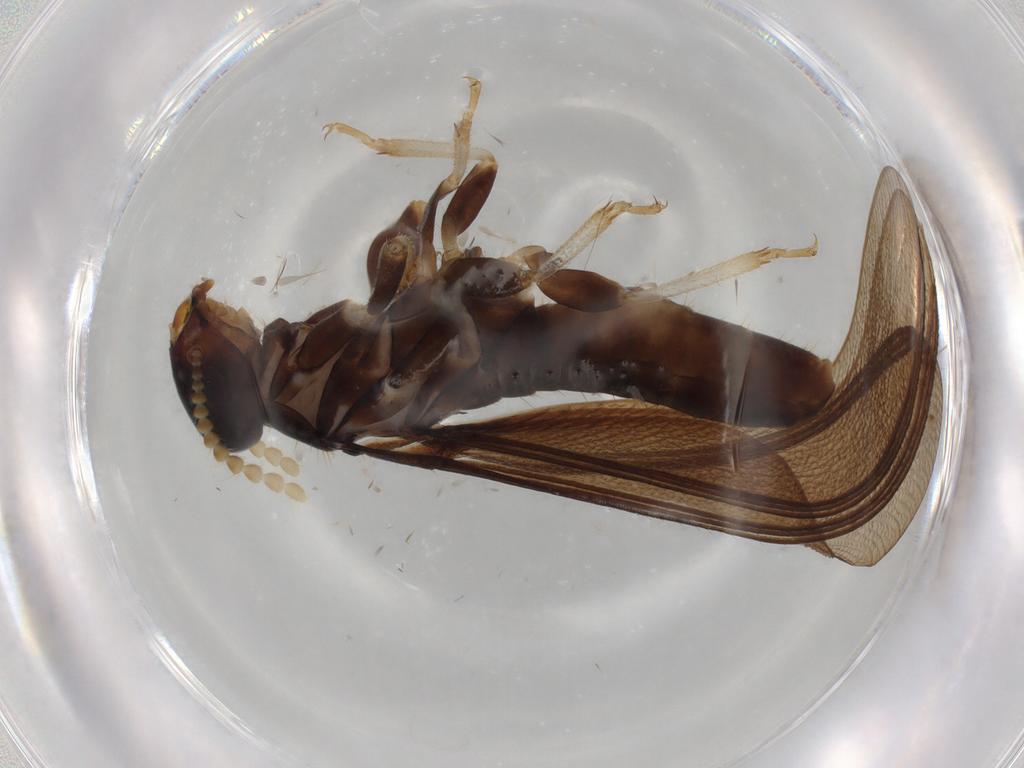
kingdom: Animalia
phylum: Arthropoda
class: Insecta
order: Blattodea
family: Kalotermitidae
